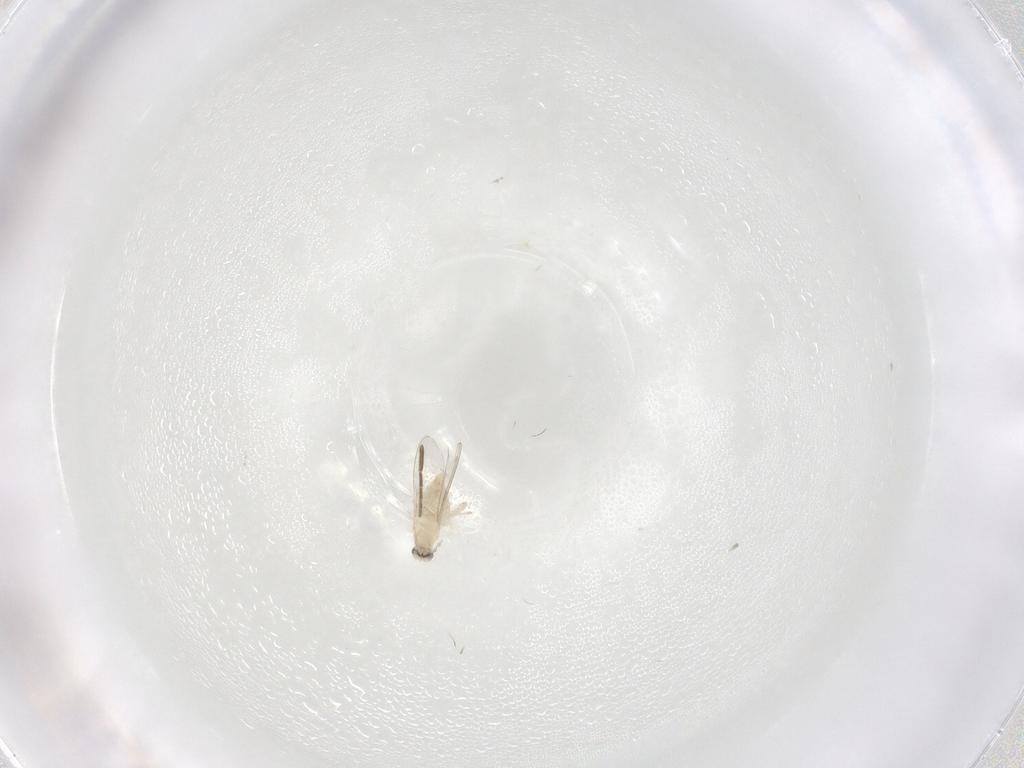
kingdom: Animalia
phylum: Arthropoda
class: Insecta
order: Diptera
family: Cecidomyiidae
